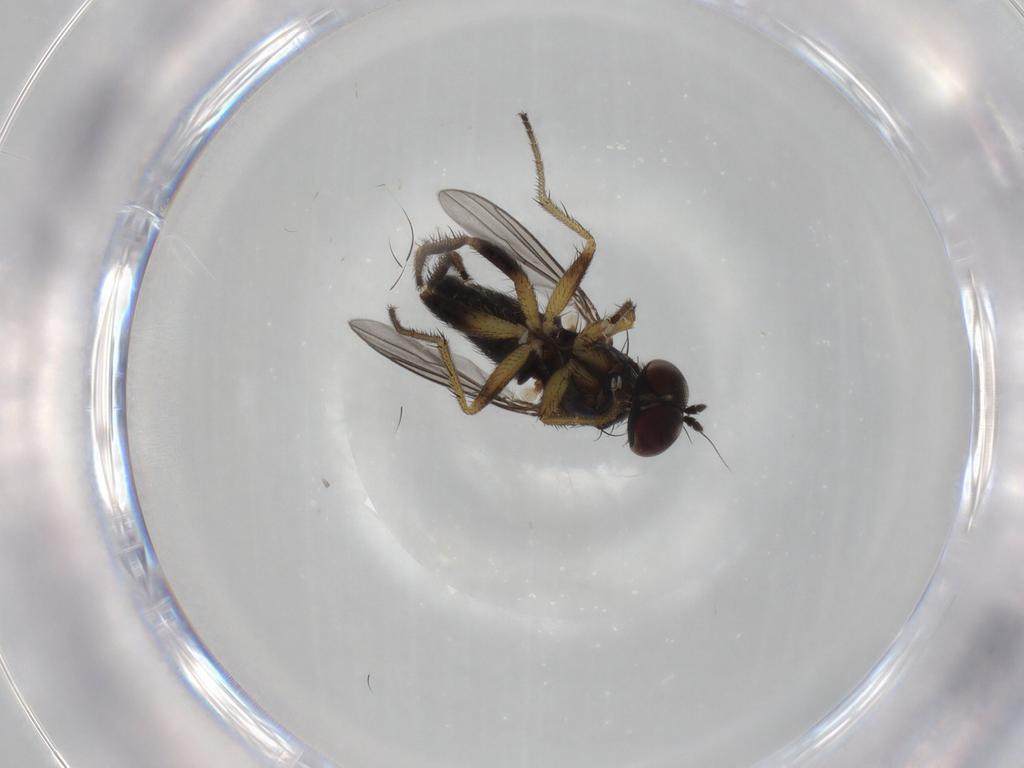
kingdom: Animalia
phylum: Arthropoda
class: Insecta
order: Diptera
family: Dolichopodidae
